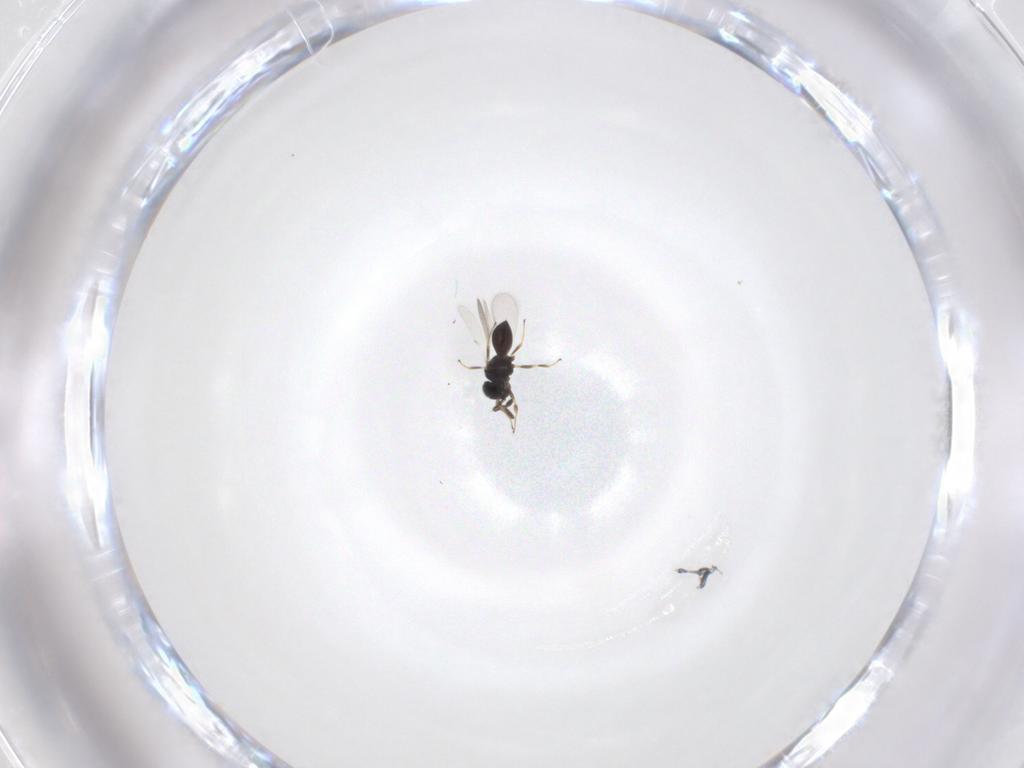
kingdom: Animalia
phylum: Arthropoda
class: Insecta
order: Hymenoptera
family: Scelionidae
